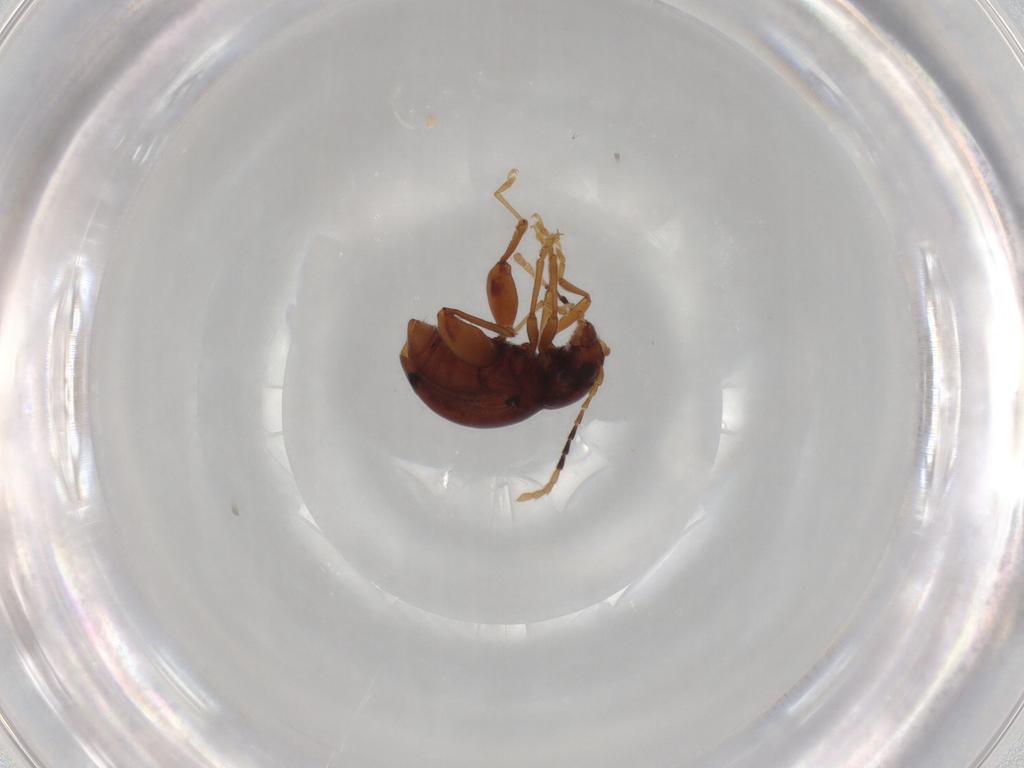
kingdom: Animalia
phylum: Arthropoda
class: Insecta
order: Coleoptera
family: Chrysomelidae
